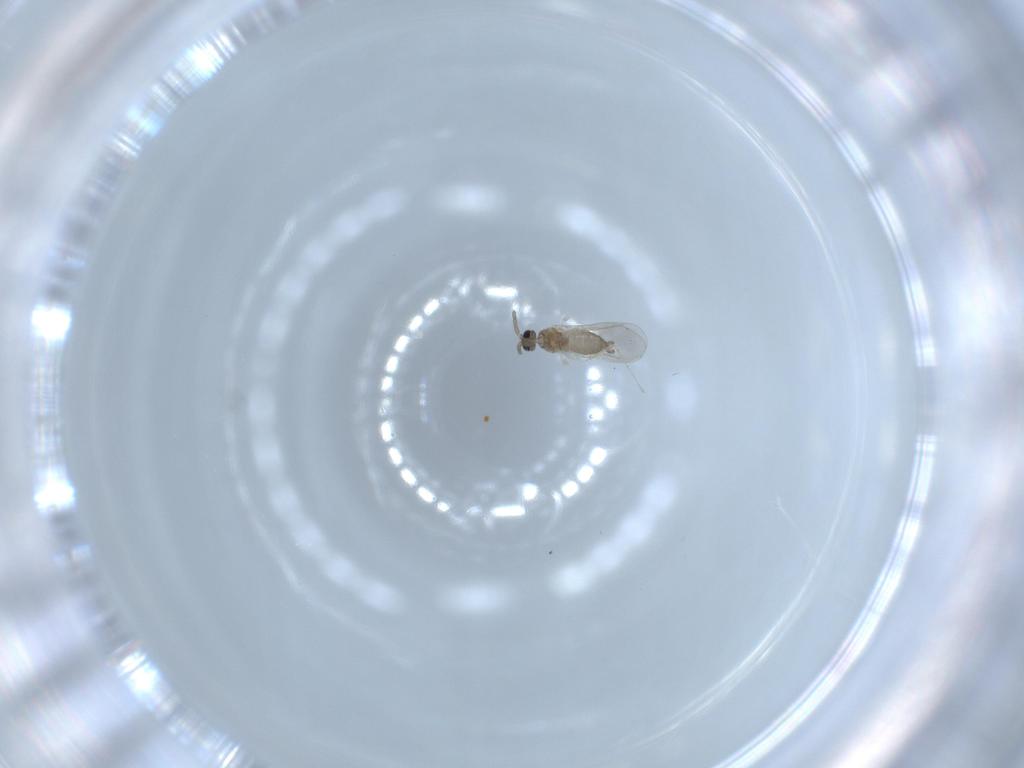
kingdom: Animalia
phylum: Arthropoda
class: Insecta
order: Diptera
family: Cecidomyiidae
